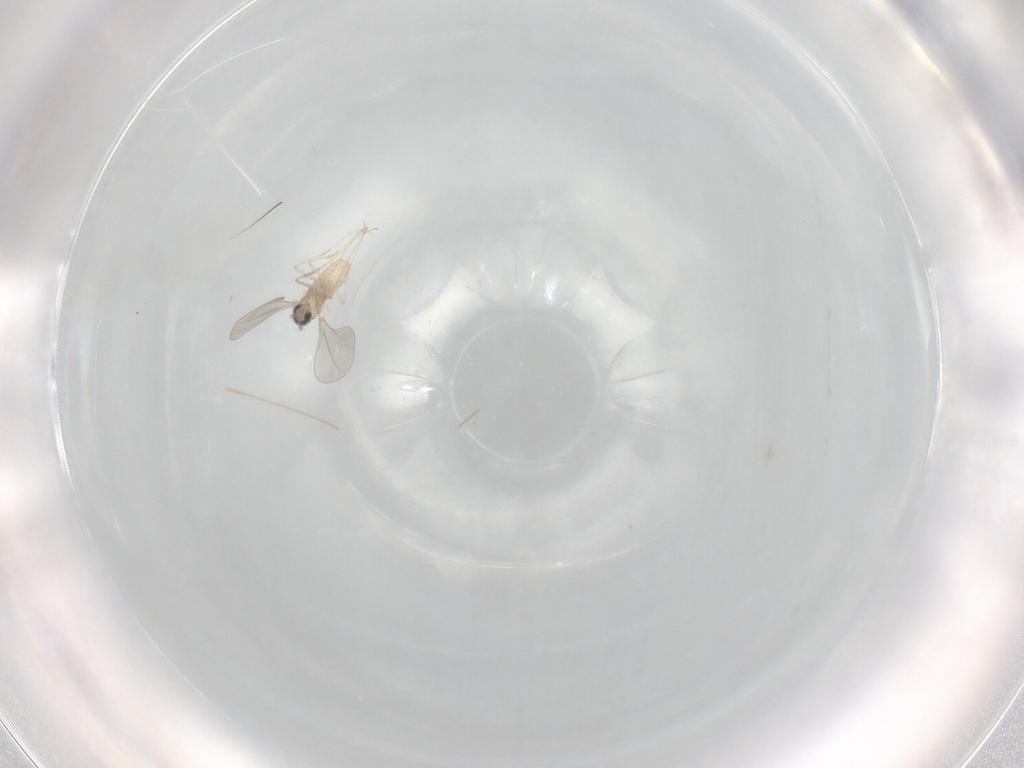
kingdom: Animalia
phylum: Arthropoda
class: Insecta
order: Diptera
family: Cecidomyiidae
